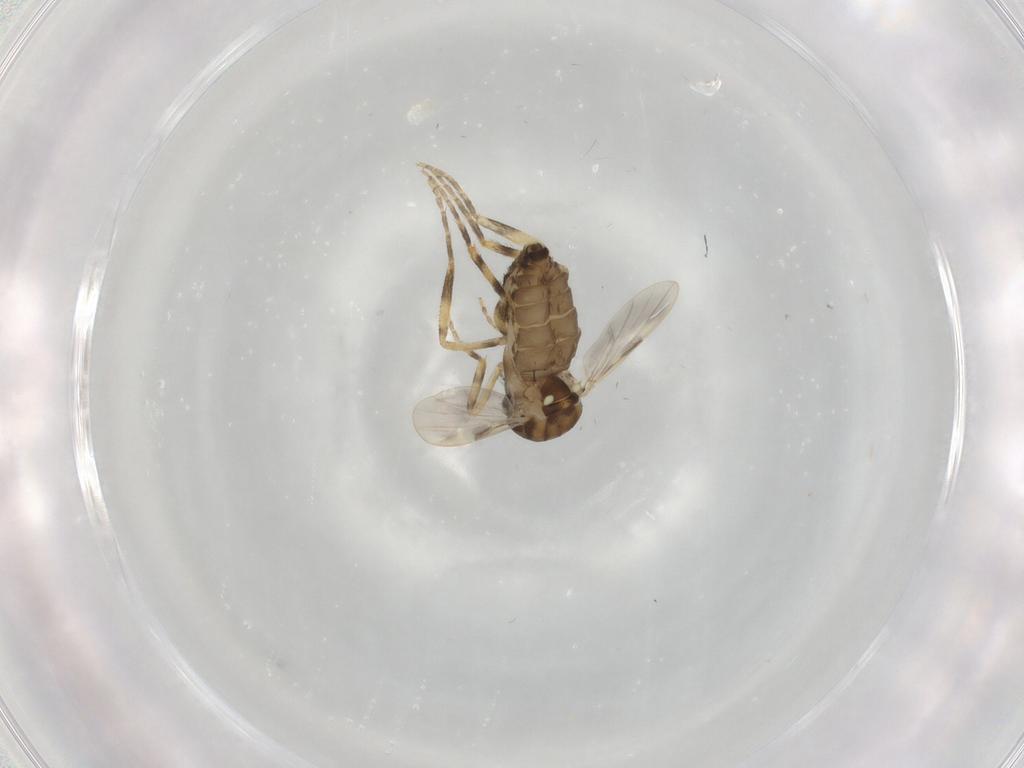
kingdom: Animalia
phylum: Arthropoda
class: Insecta
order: Diptera
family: Ceratopogonidae
